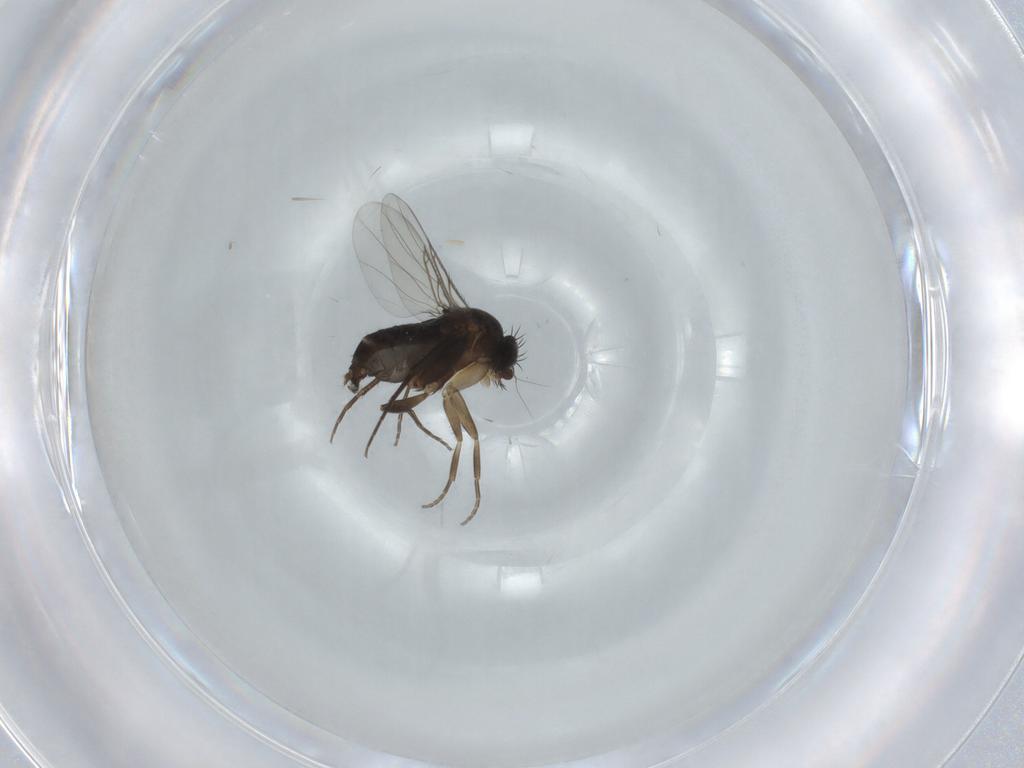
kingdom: Animalia
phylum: Arthropoda
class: Insecta
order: Diptera
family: Phoridae
